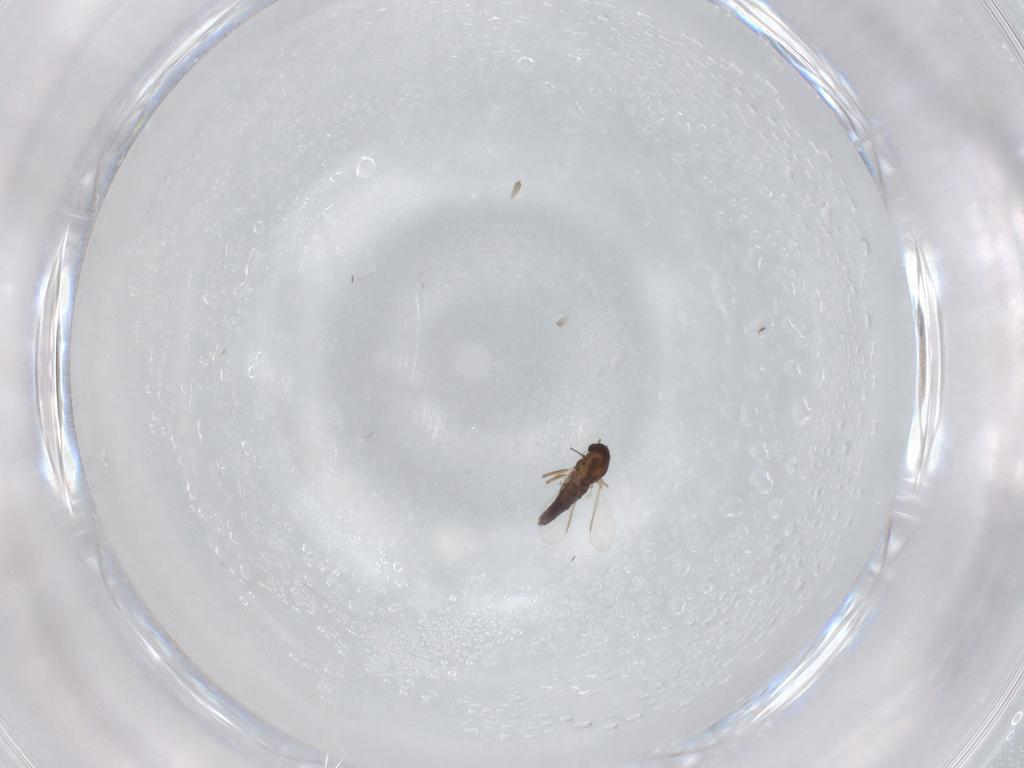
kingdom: Animalia
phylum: Arthropoda
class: Insecta
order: Diptera
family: Chironomidae
